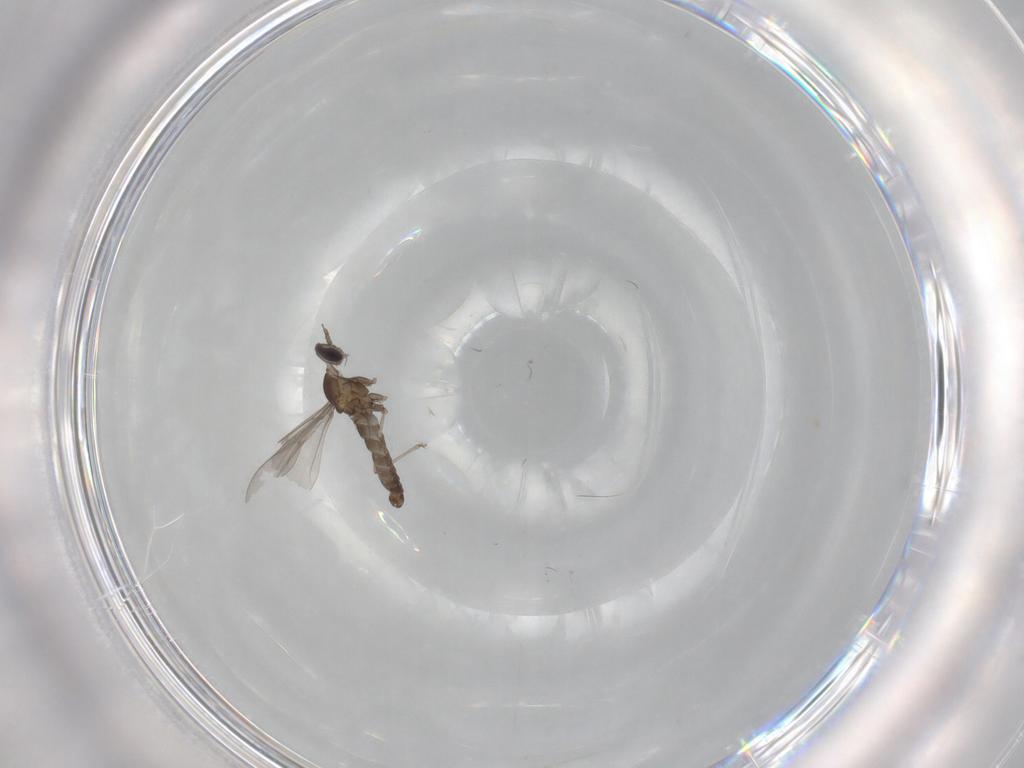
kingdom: Animalia
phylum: Arthropoda
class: Insecta
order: Diptera
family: Cecidomyiidae
